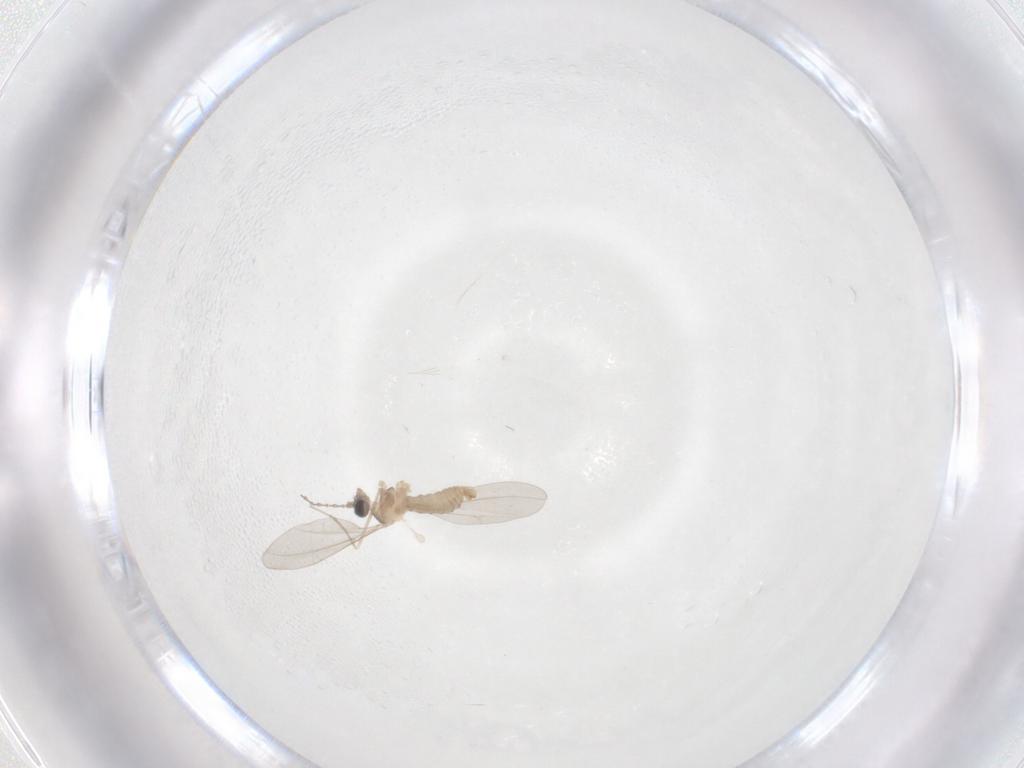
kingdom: Animalia
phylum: Arthropoda
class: Insecta
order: Diptera
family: Cecidomyiidae
